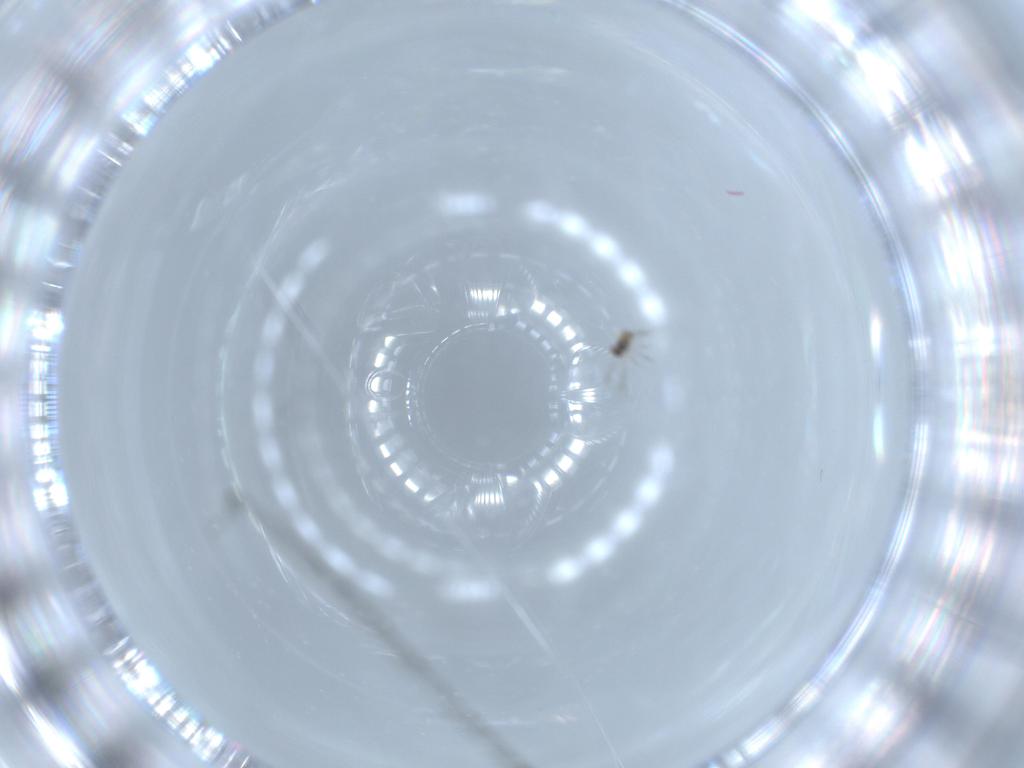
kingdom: Animalia
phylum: Arthropoda
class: Insecta
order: Hymenoptera
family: Mymaridae
